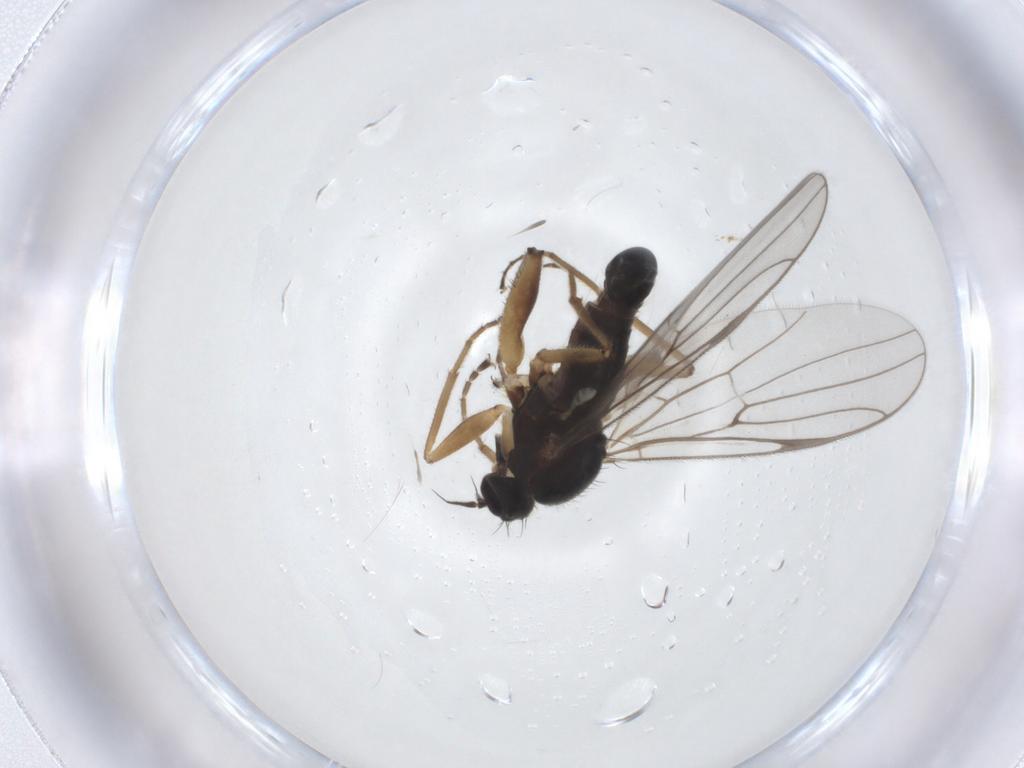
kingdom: Animalia
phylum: Arthropoda
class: Insecta
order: Diptera
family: Hybotidae
